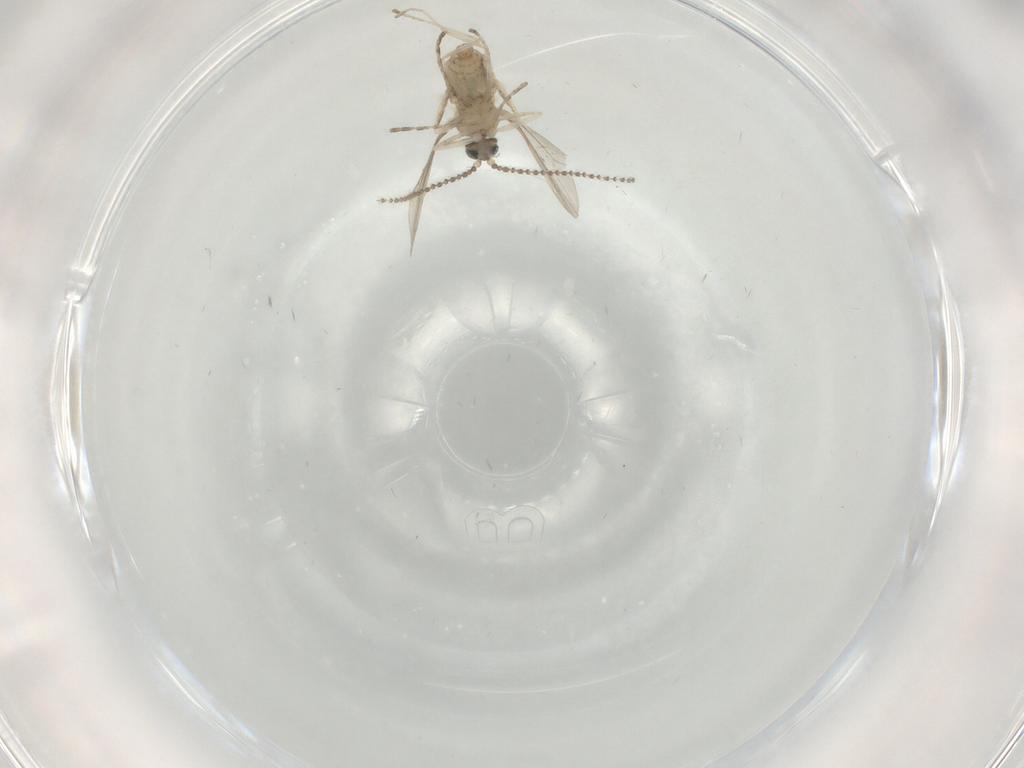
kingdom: Animalia
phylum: Arthropoda
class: Insecta
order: Diptera
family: Cecidomyiidae
